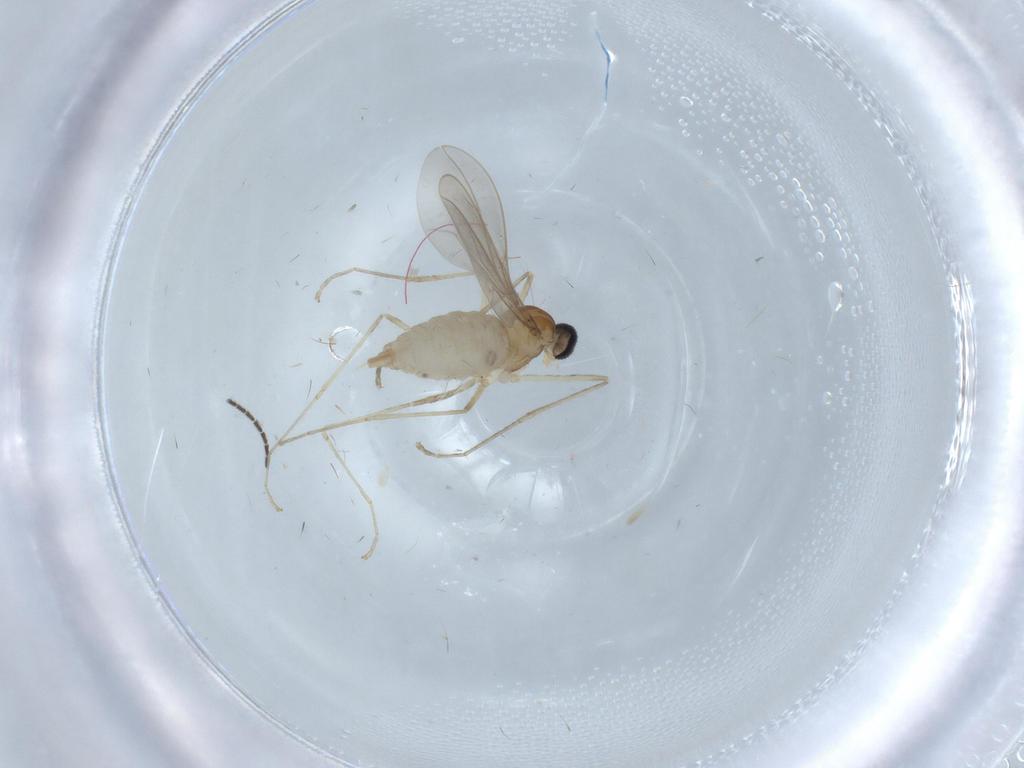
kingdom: Animalia
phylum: Arthropoda
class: Insecta
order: Diptera
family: Cecidomyiidae
